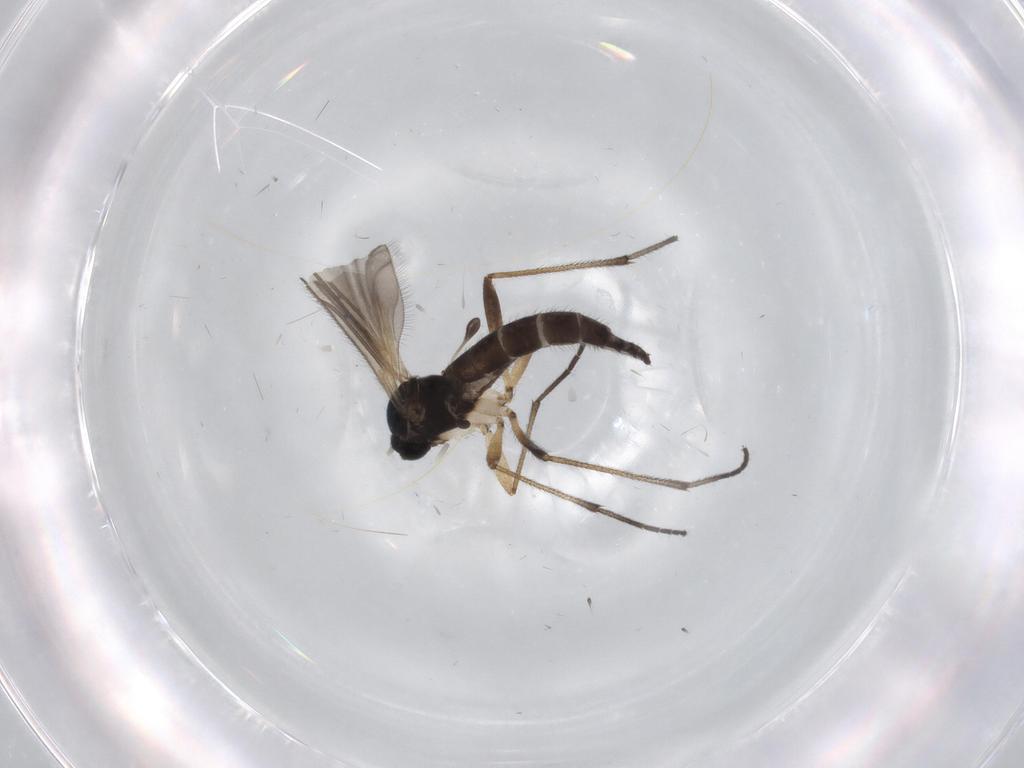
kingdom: Animalia
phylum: Arthropoda
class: Insecta
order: Diptera
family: Sciaridae
